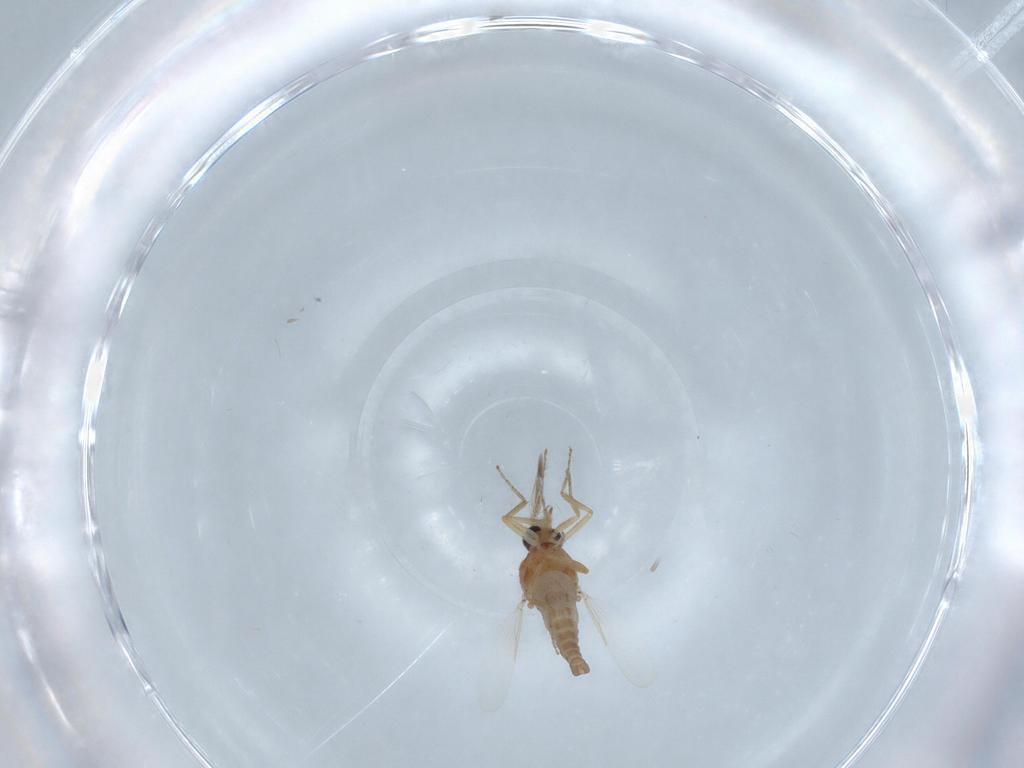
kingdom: Animalia
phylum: Arthropoda
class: Insecta
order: Diptera
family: Ceratopogonidae
